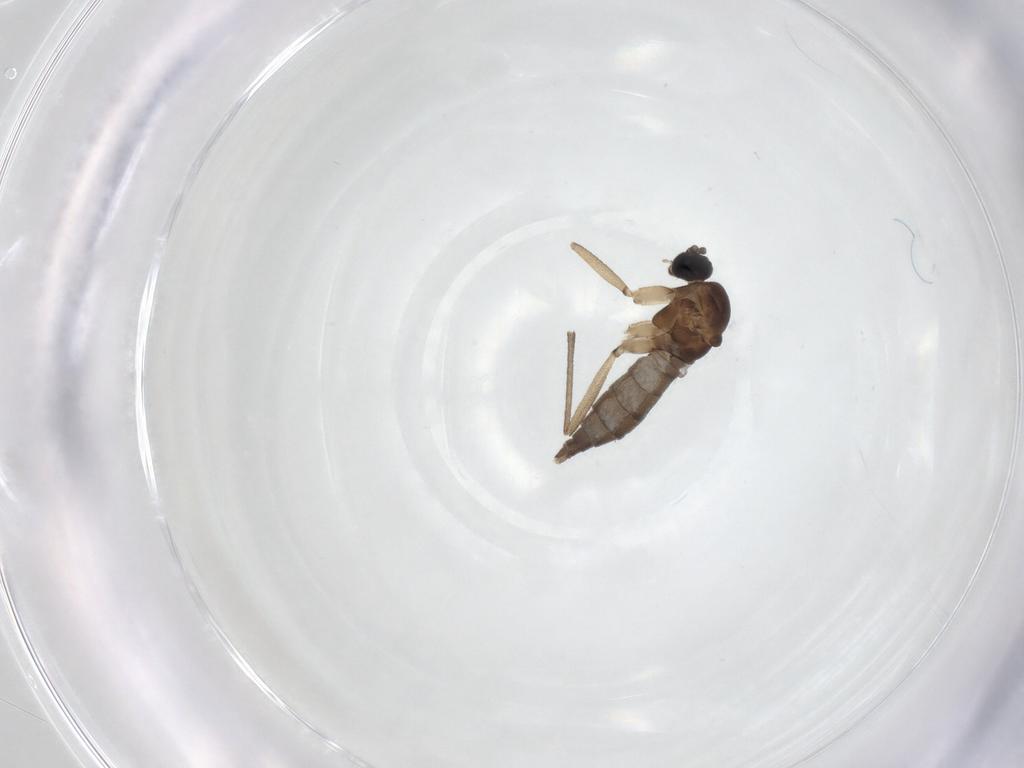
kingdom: Animalia
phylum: Arthropoda
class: Insecta
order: Diptera
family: Sciaridae
